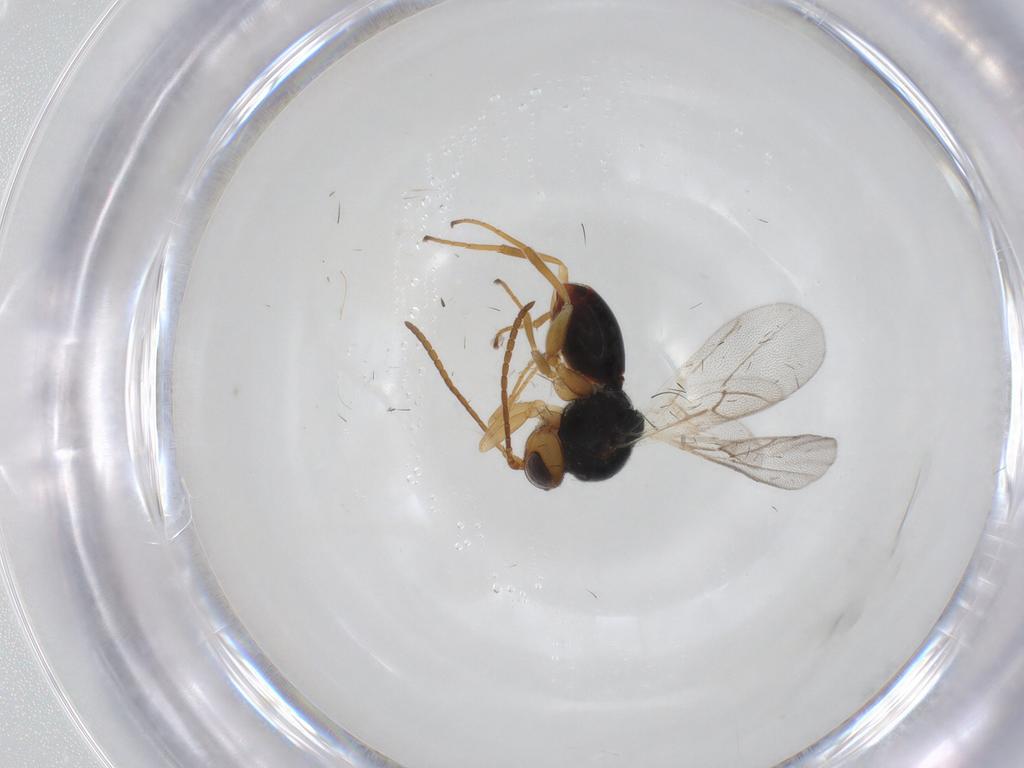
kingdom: Animalia
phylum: Arthropoda
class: Insecta
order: Hymenoptera
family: Cynipidae
